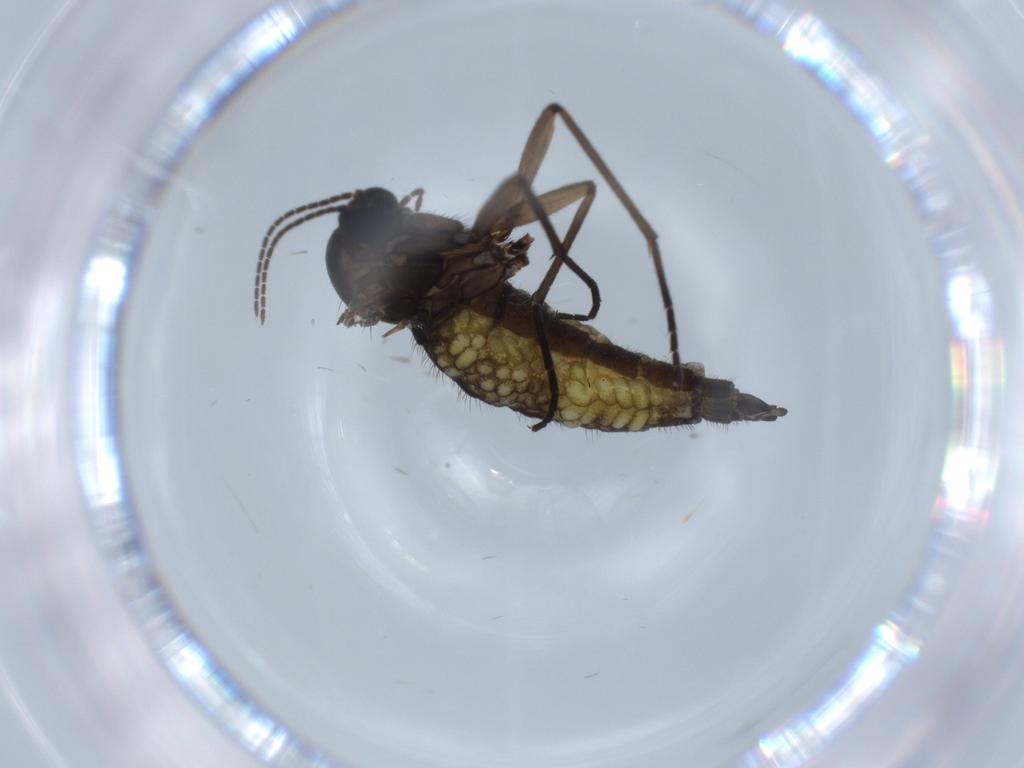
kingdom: Animalia
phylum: Arthropoda
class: Insecta
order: Diptera
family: Sciaridae
